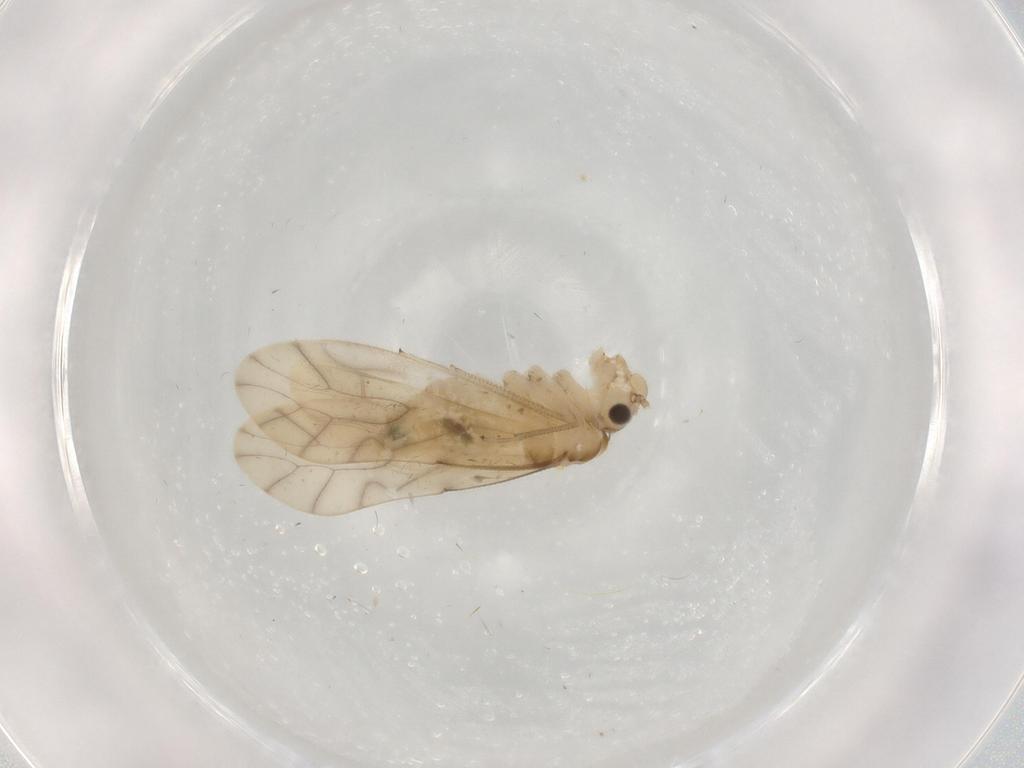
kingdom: Animalia
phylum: Arthropoda
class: Insecta
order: Psocodea
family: Caeciliusidae
